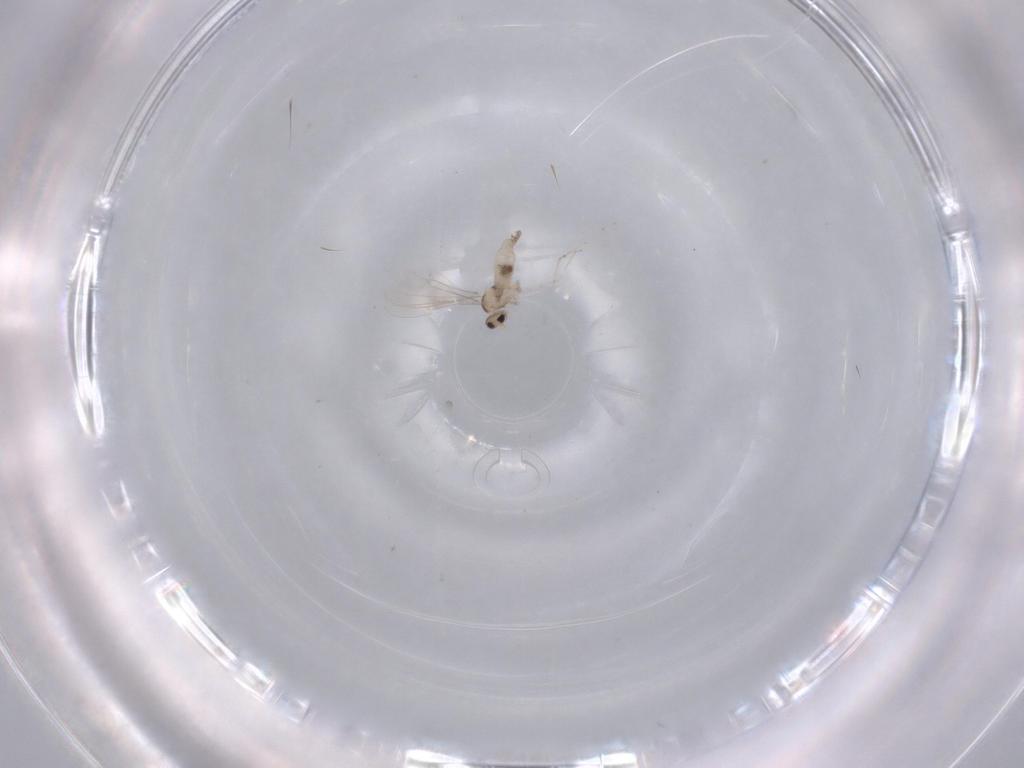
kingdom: Animalia
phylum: Arthropoda
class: Insecta
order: Diptera
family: Cecidomyiidae
